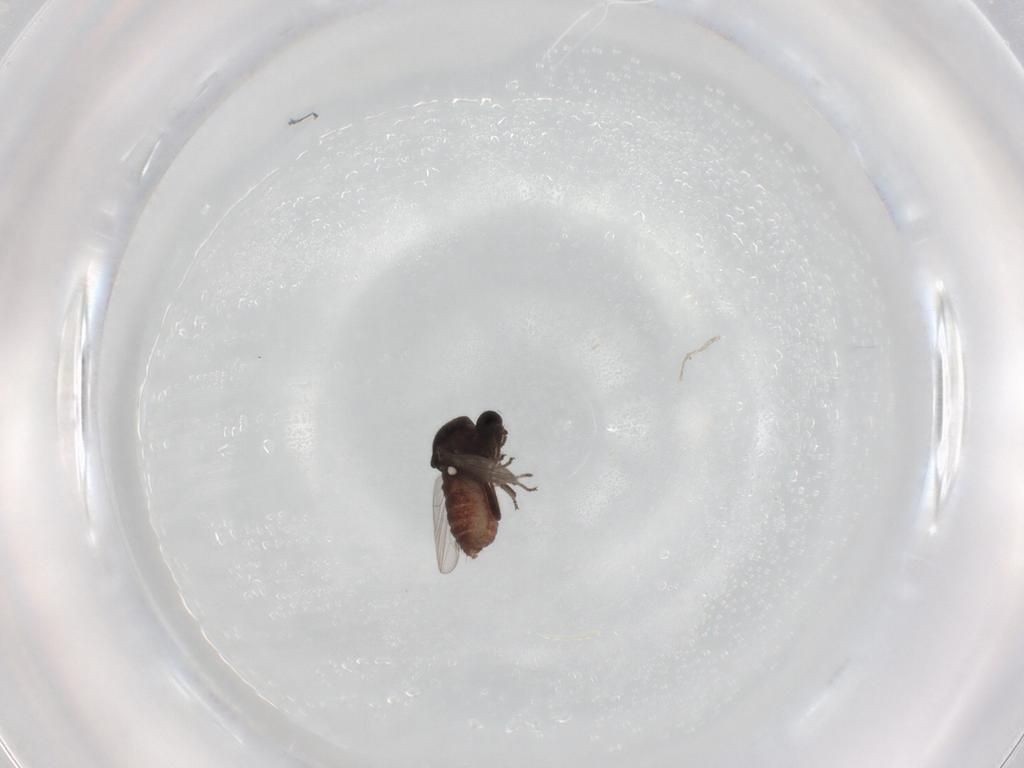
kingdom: Animalia
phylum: Arthropoda
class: Insecta
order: Diptera
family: Ceratopogonidae
